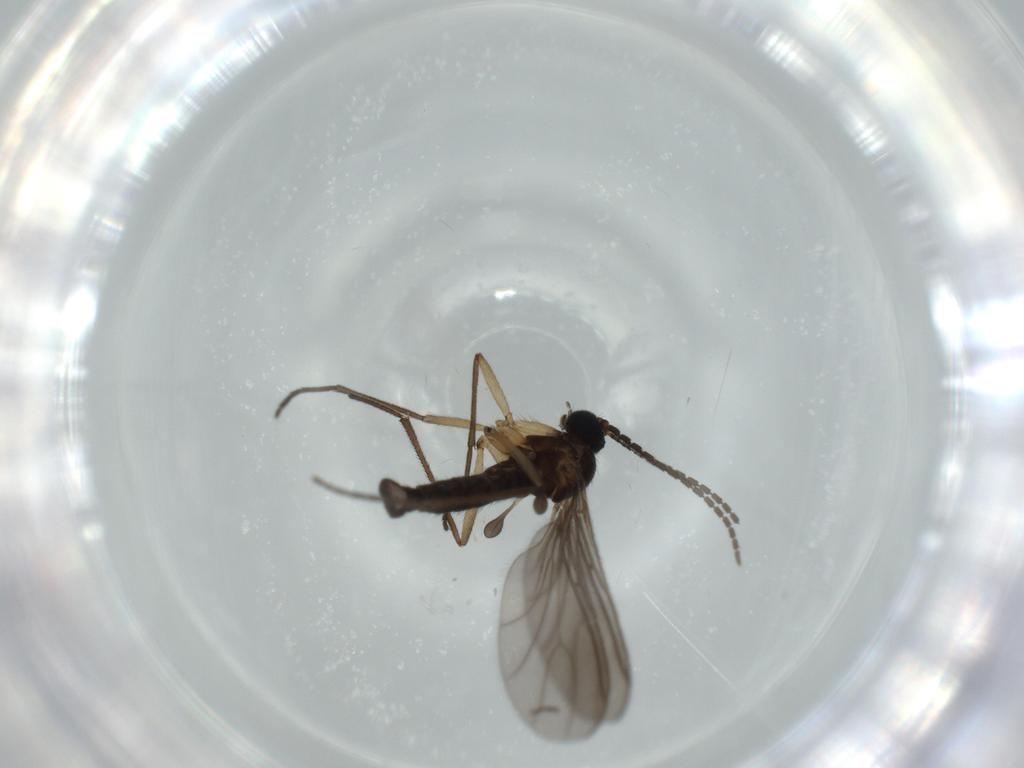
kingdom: Animalia
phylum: Arthropoda
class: Insecta
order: Diptera
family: Sciaridae
